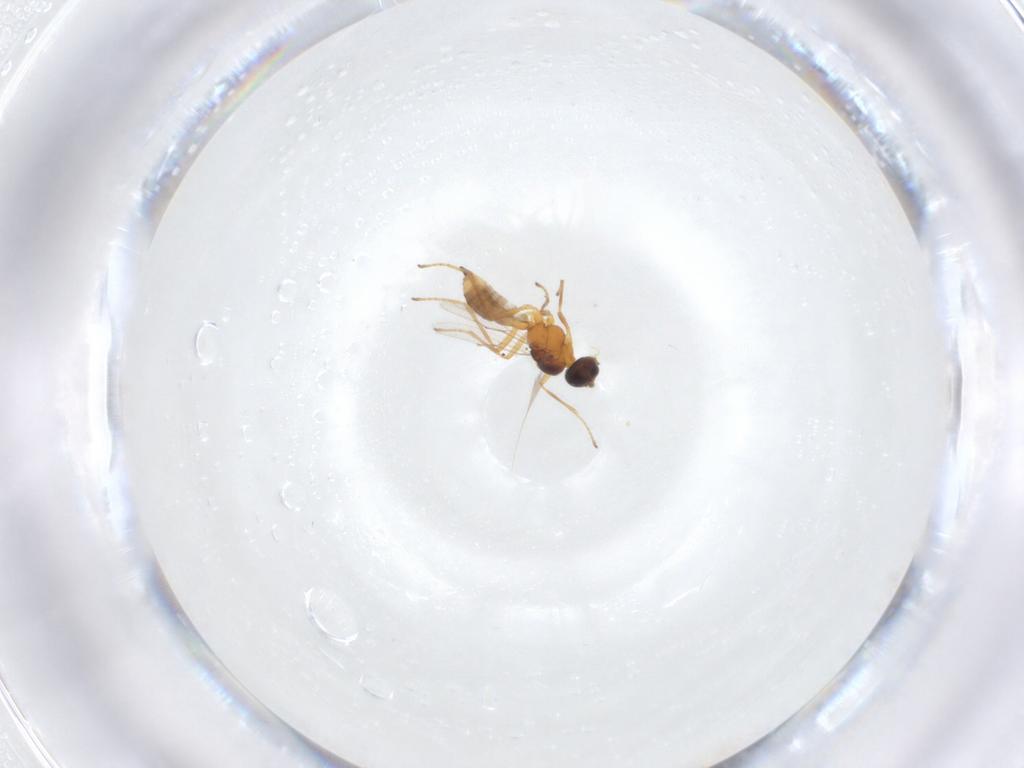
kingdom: Animalia
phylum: Arthropoda
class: Insecta
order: Hymenoptera
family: Braconidae
